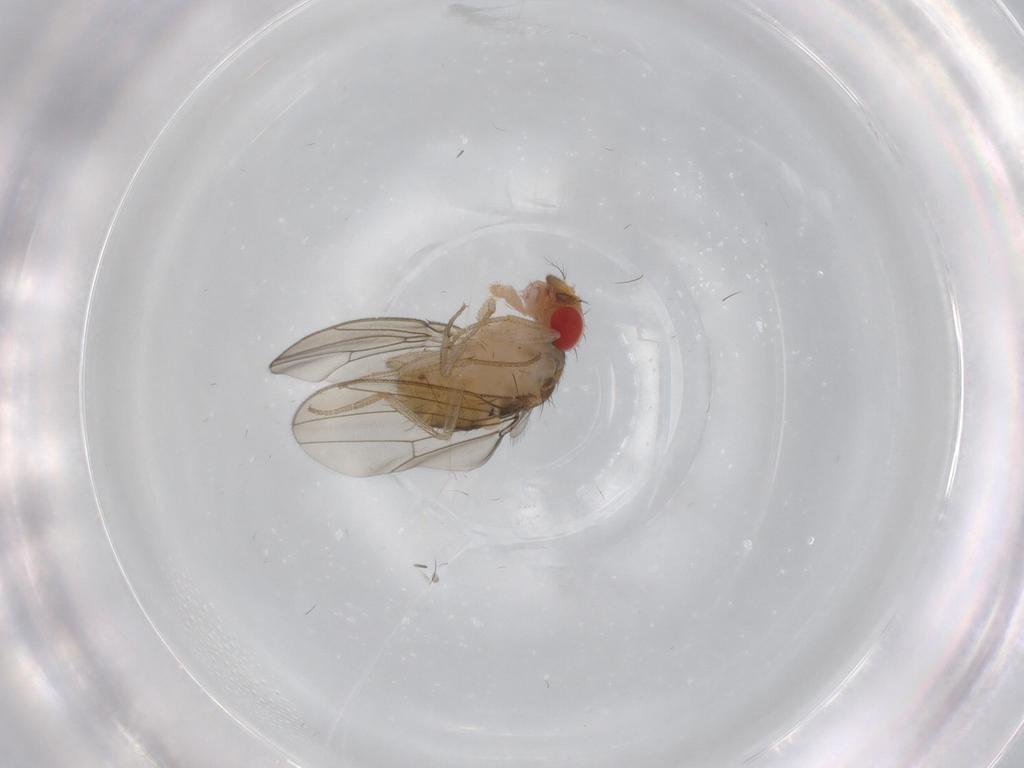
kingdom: Animalia
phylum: Arthropoda
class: Insecta
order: Diptera
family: Drosophilidae
